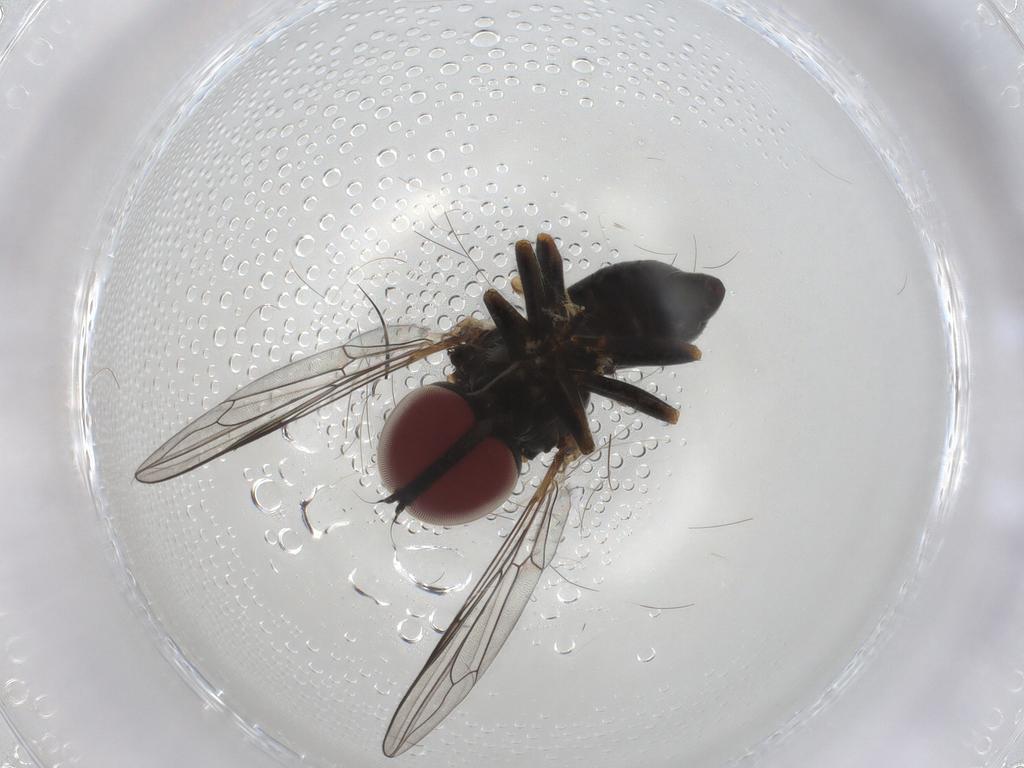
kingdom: Animalia
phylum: Arthropoda
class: Insecta
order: Diptera
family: Pipunculidae
